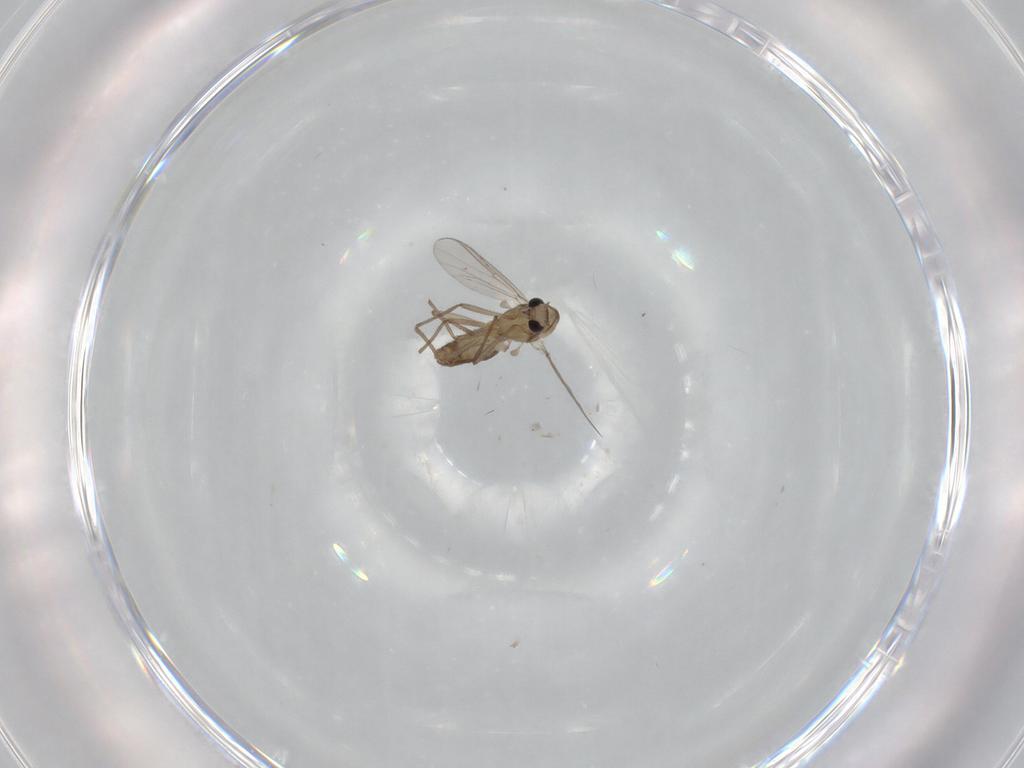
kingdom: Animalia
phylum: Arthropoda
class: Insecta
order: Diptera
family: Chironomidae
